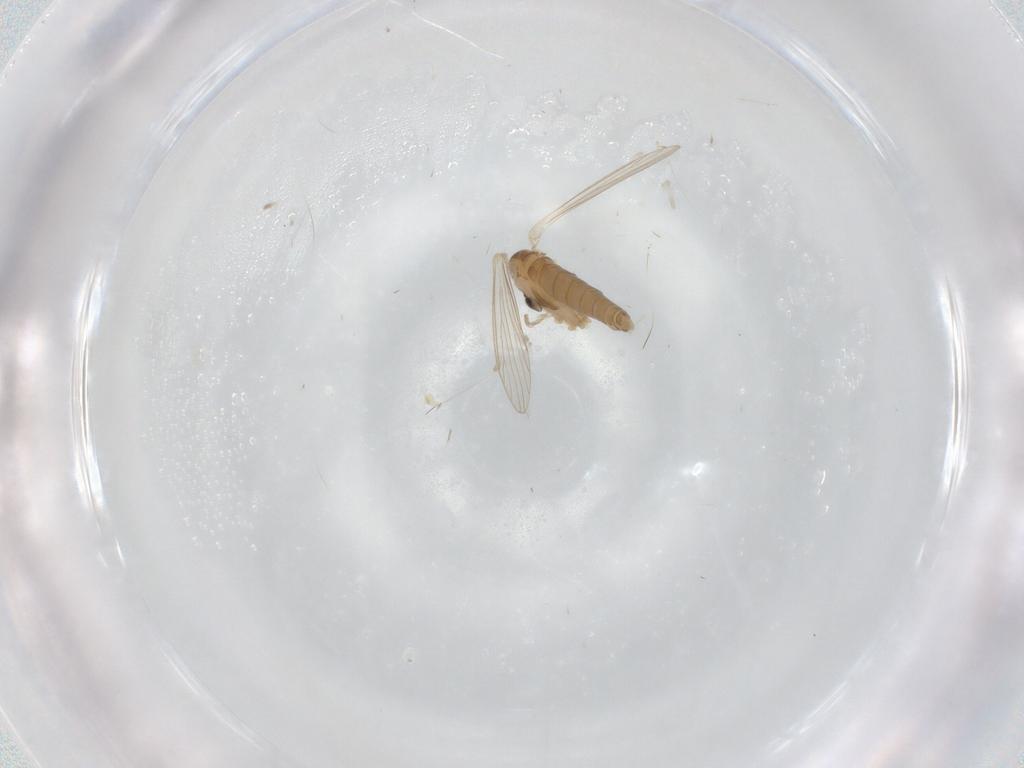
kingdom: Animalia
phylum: Arthropoda
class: Insecta
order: Diptera
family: Psychodidae
